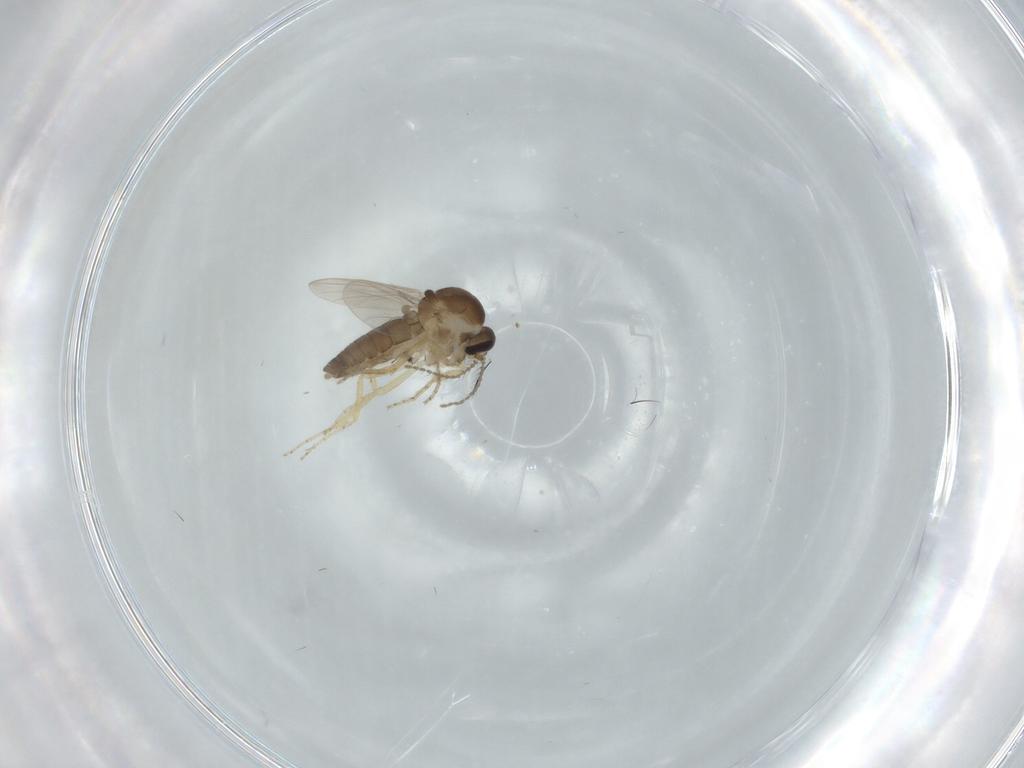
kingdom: Animalia
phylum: Arthropoda
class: Insecta
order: Diptera
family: Ceratopogonidae
